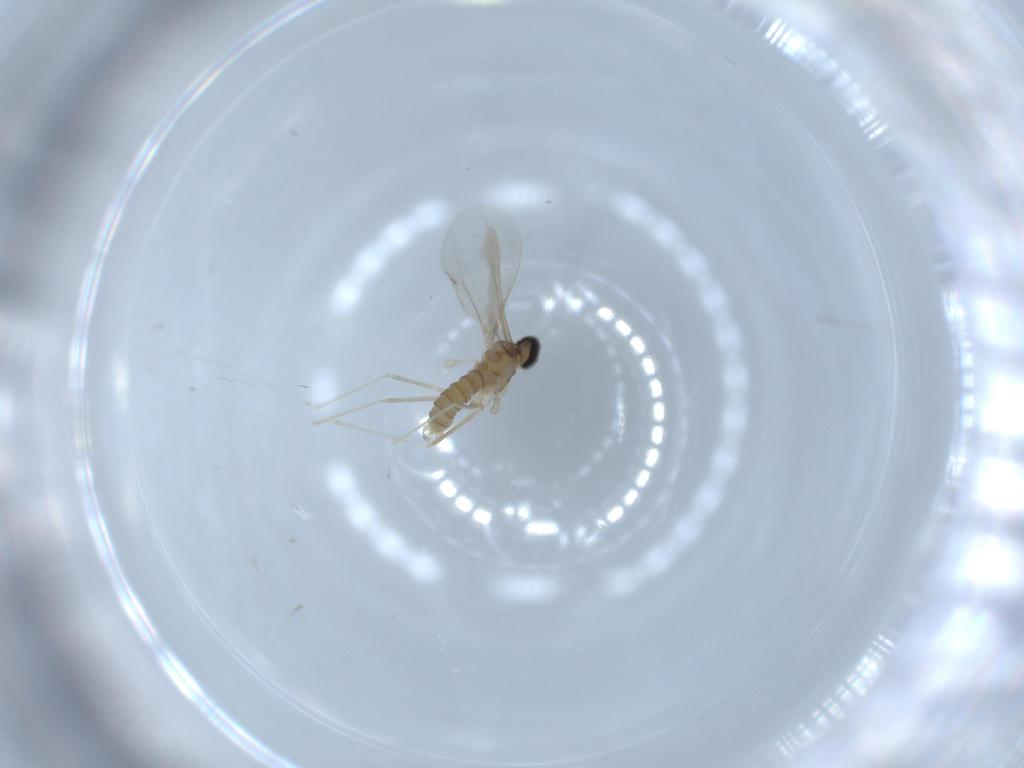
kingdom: Animalia
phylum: Arthropoda
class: Insecta
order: Diptera
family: Cecidomyiidae
